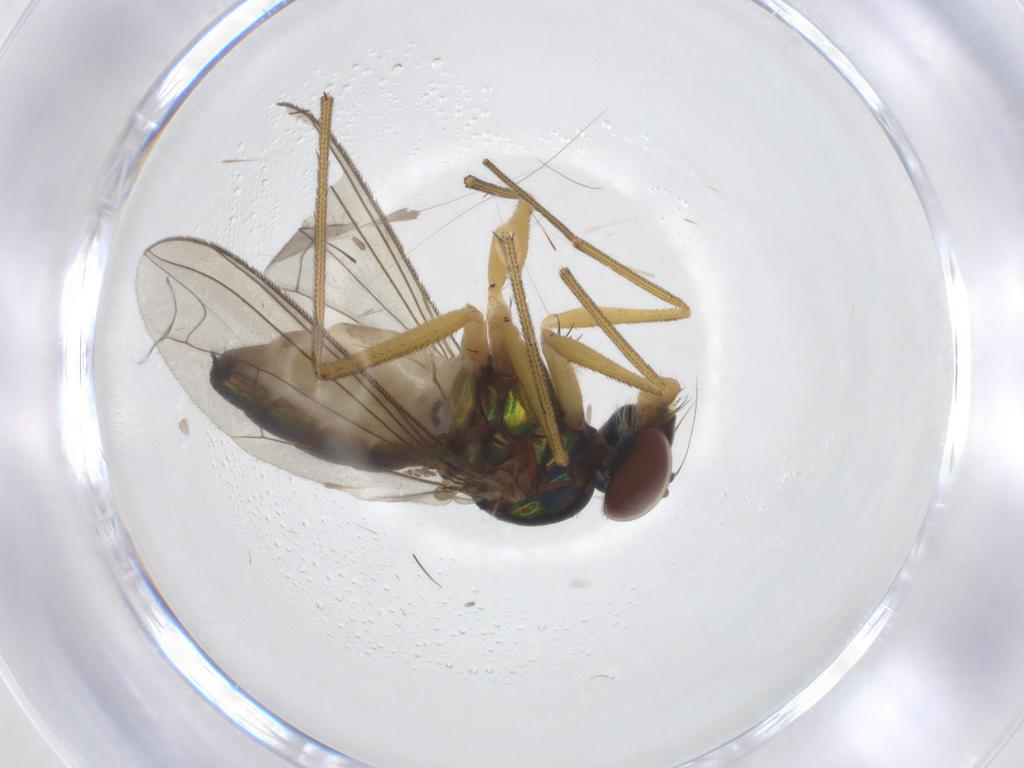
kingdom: Animalia
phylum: Arthropoda
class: Insecta
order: Diptera
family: Dolichopodidae
